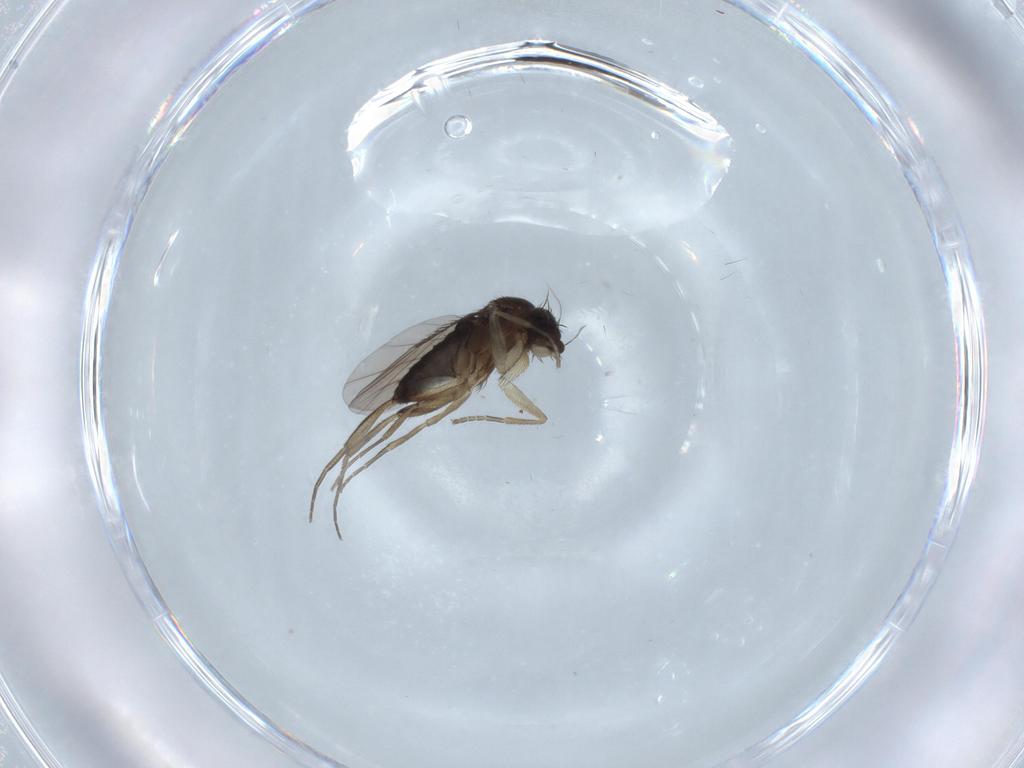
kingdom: Animalia
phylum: Arthropoda
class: Insecta
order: Diptera
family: Phoridae
